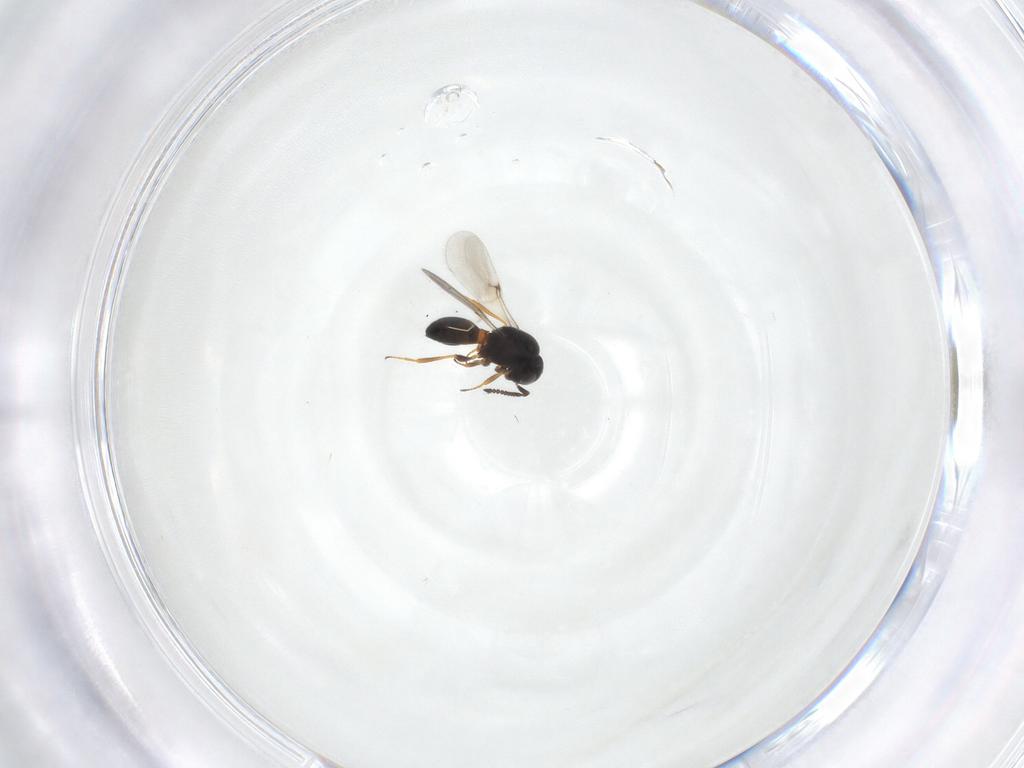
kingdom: Animalia
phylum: Arthropoda
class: Insecta
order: Hymenoptera
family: Scelionidae
